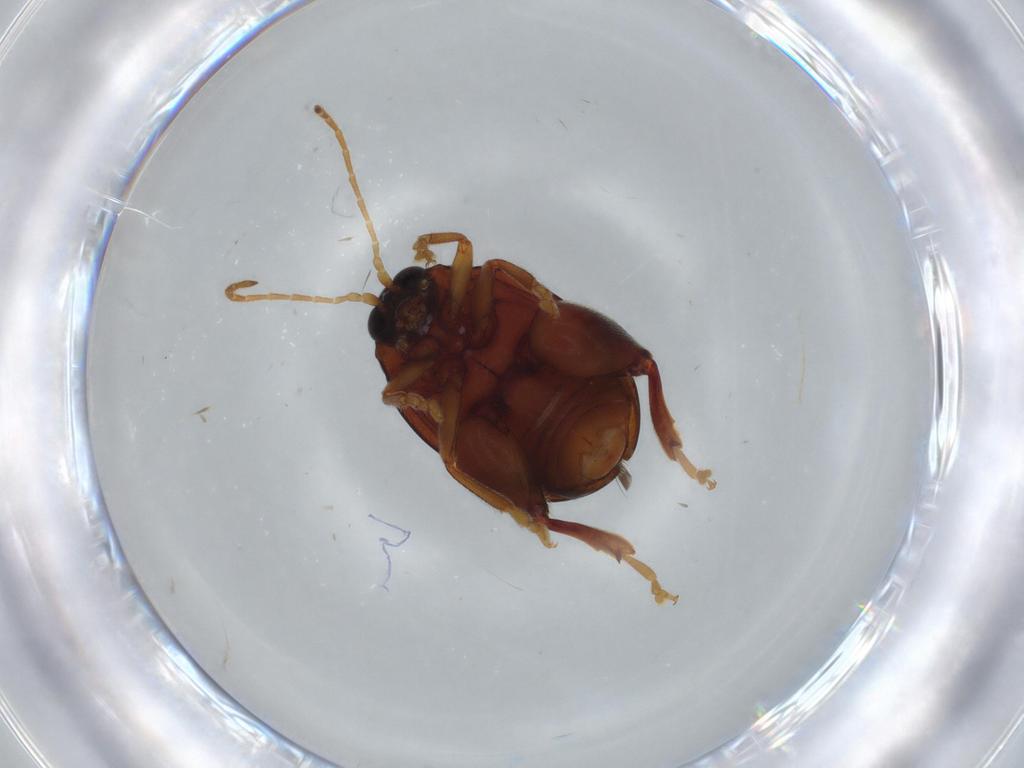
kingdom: Animalia
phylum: Arthropoda
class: Insecta
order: Coleoptera
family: Chrysomelidae
